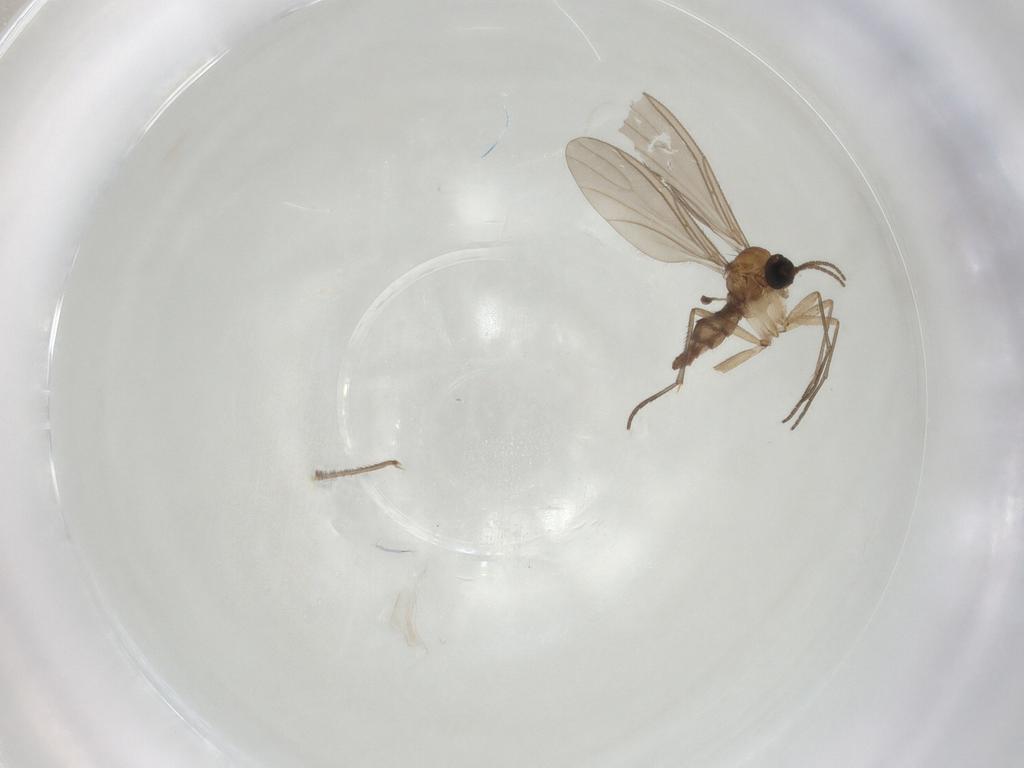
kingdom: Animalia
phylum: Arthropoda
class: Insecta
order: Diptera
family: Sciaridae
